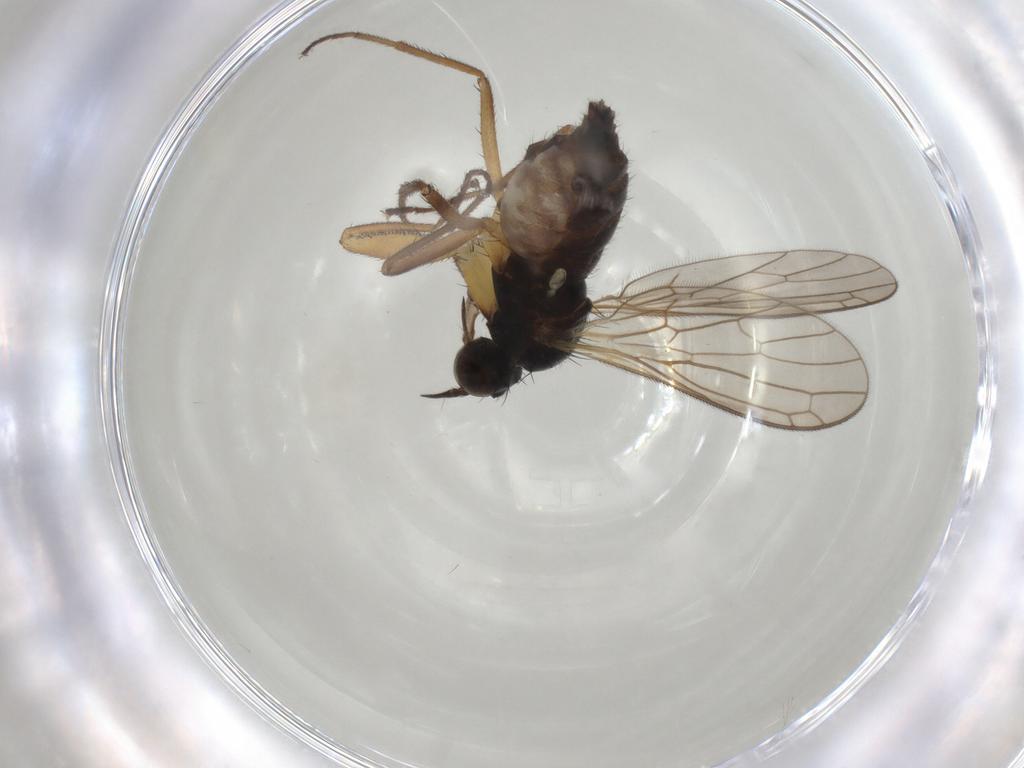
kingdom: Animalia
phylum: Arthropoda
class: Insecta
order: Diptera
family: Empididae
